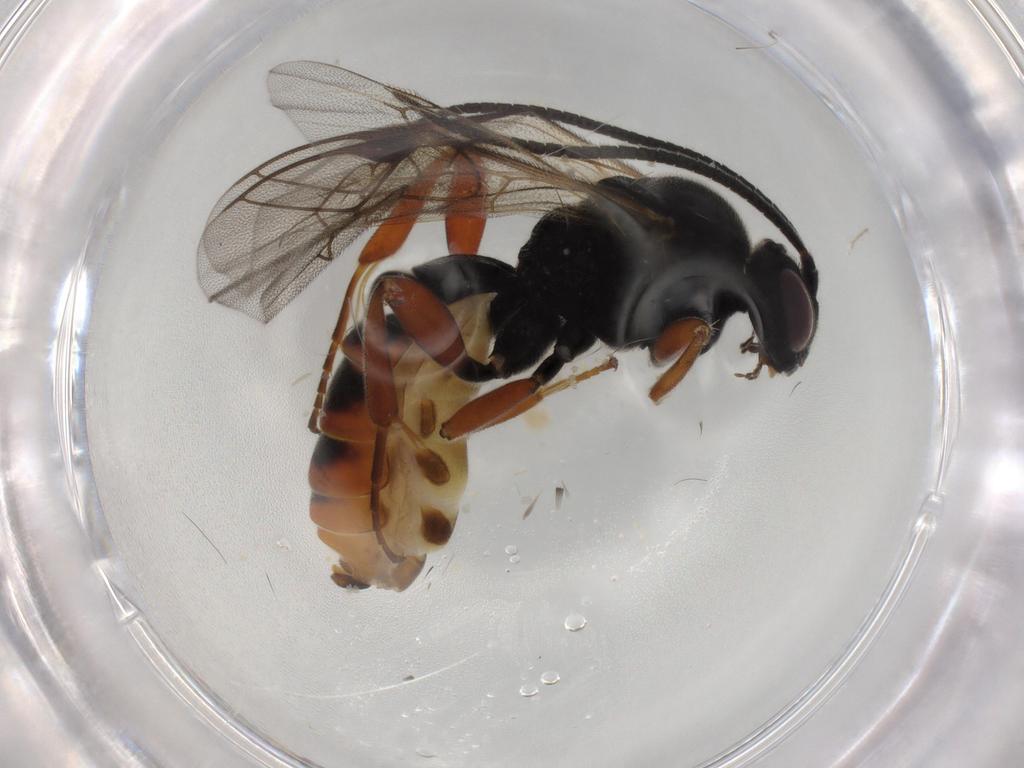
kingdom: Animalia
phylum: Arthropoda
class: Insecta
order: Hymenoptera
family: Ichneumonidae
